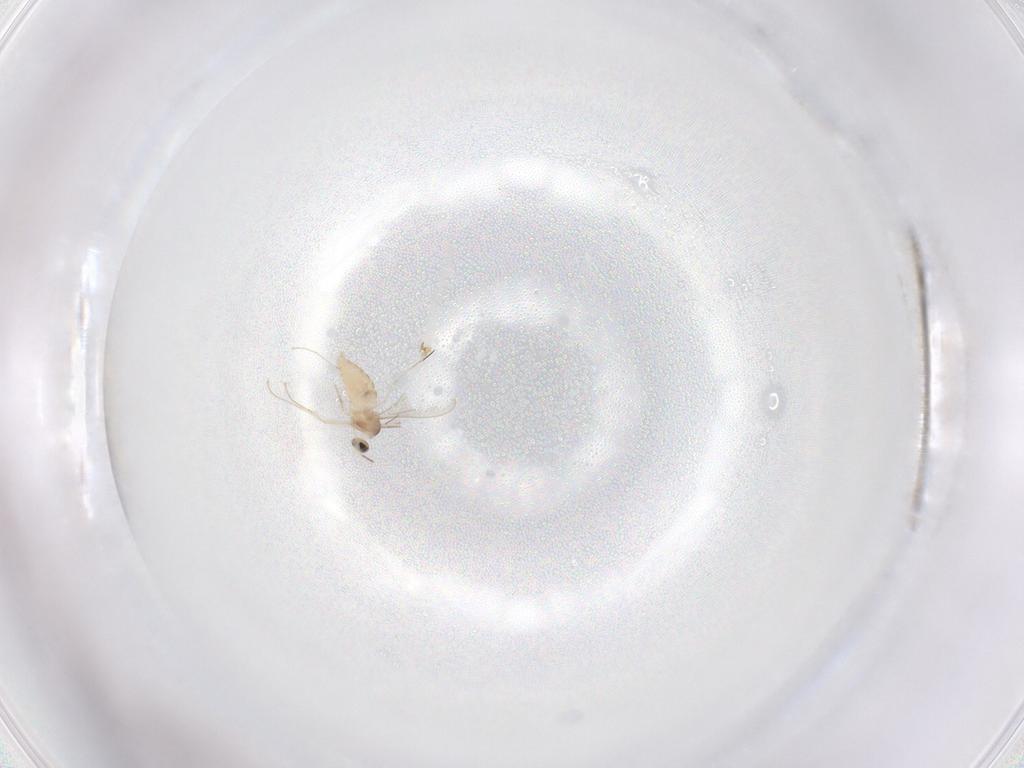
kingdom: Animalia
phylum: Arthropoda
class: Insecta
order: Diptera
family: Cecidomyiidae
